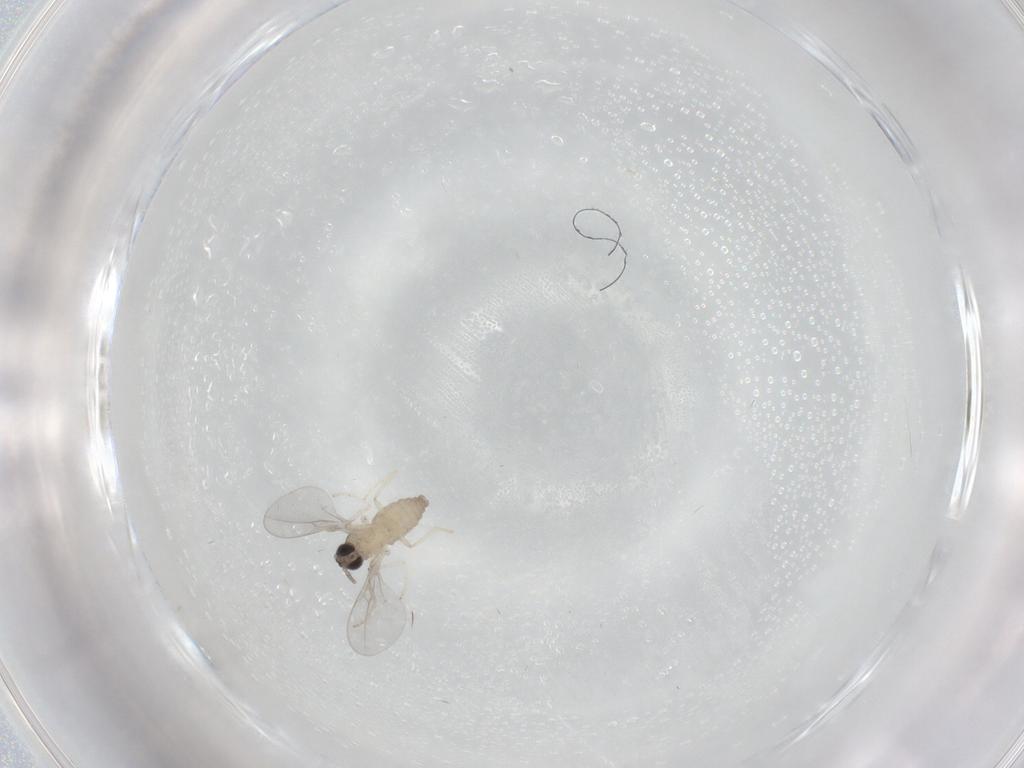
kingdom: Animalia
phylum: Arthropoda
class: Insecta
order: Diptera
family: Cecidomyiidae
